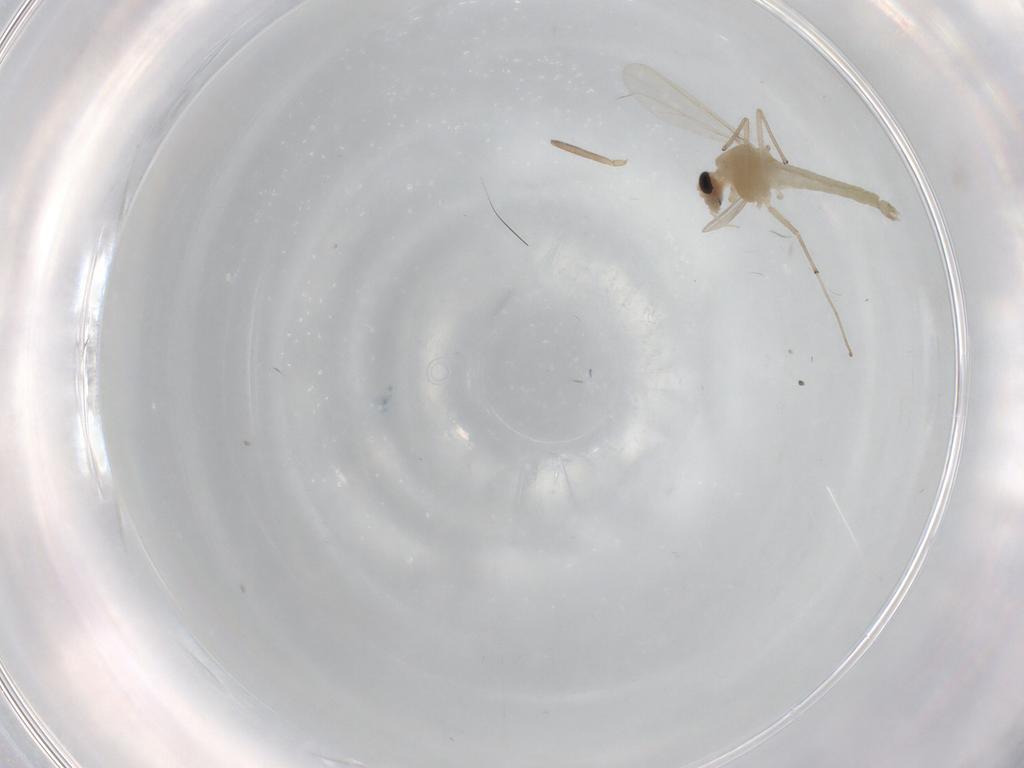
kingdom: Animalia
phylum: Arthropoda
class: Insecta
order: Diptera
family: Chironomidae
